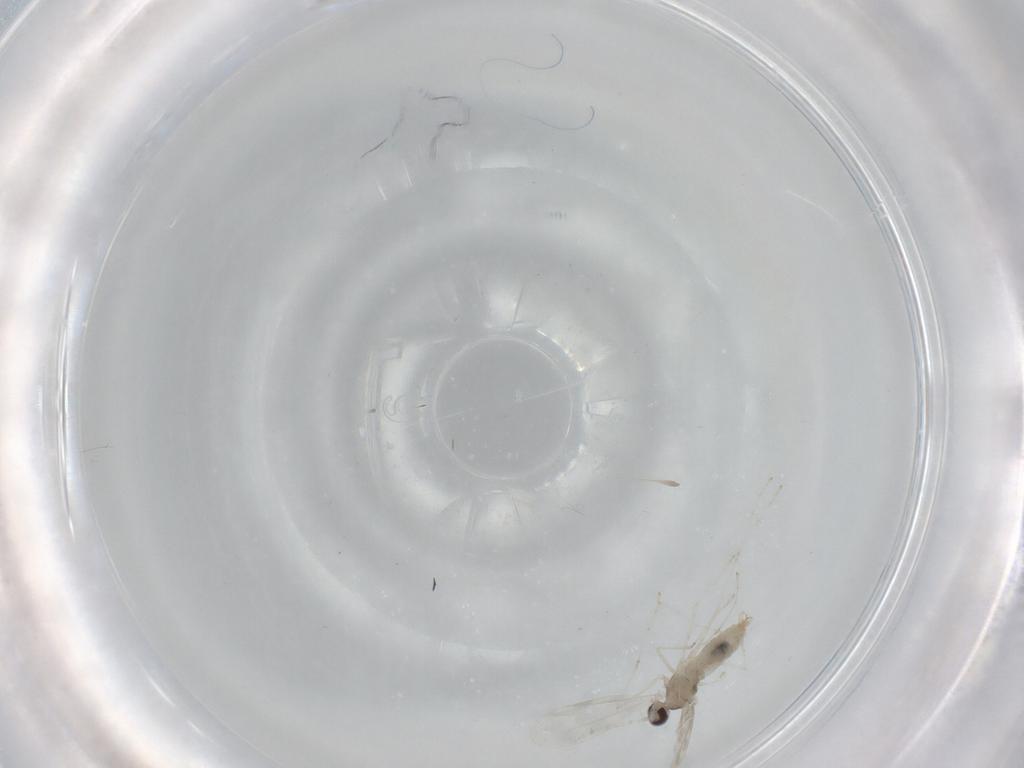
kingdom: Animalia
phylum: Arthropoda
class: Insecta
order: Diptera
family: Cecidomyiidae
